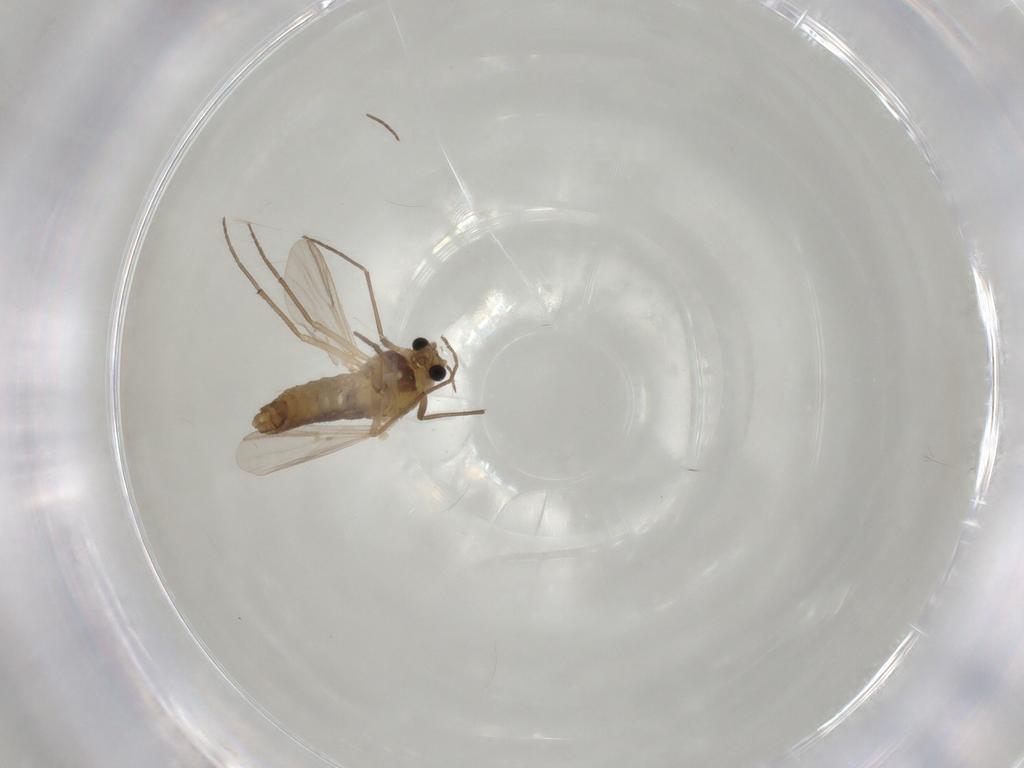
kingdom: Animalia
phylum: Arthropoda
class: Insecta
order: Diptera
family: Chironomidae
